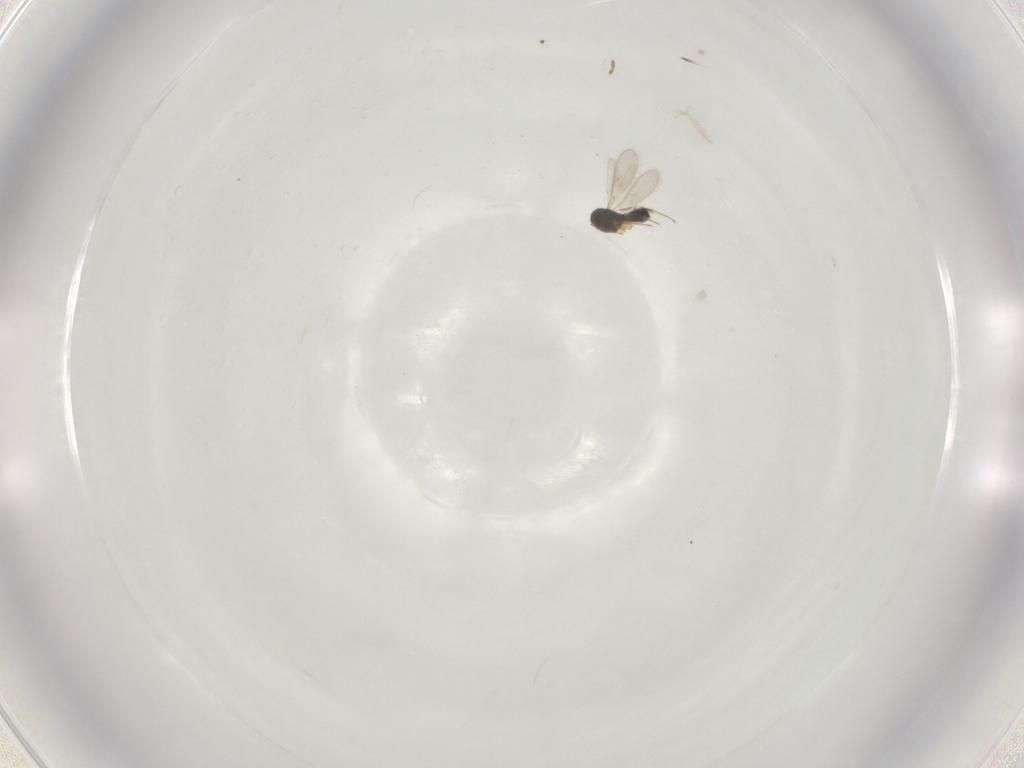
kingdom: Animalia
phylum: Arthropoda
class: Insecta
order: Hymenoptera
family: Scelionidae
